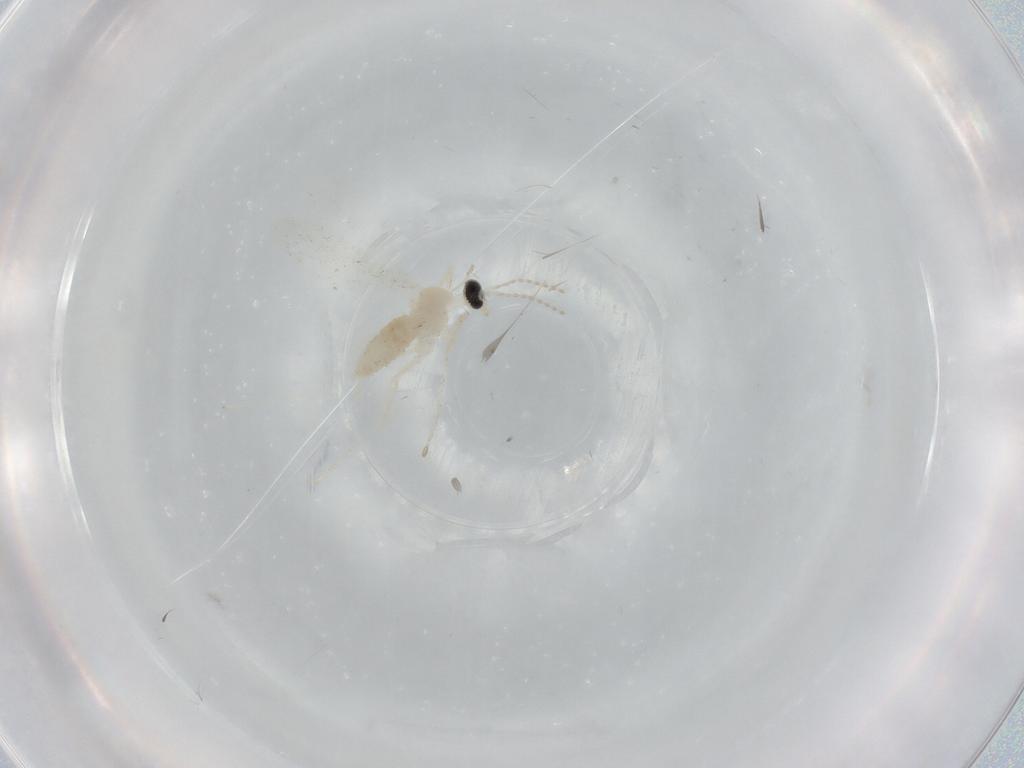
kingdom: Animalia
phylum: Arthropoda
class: Insecta
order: Diptera
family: Cecidomyiidae
